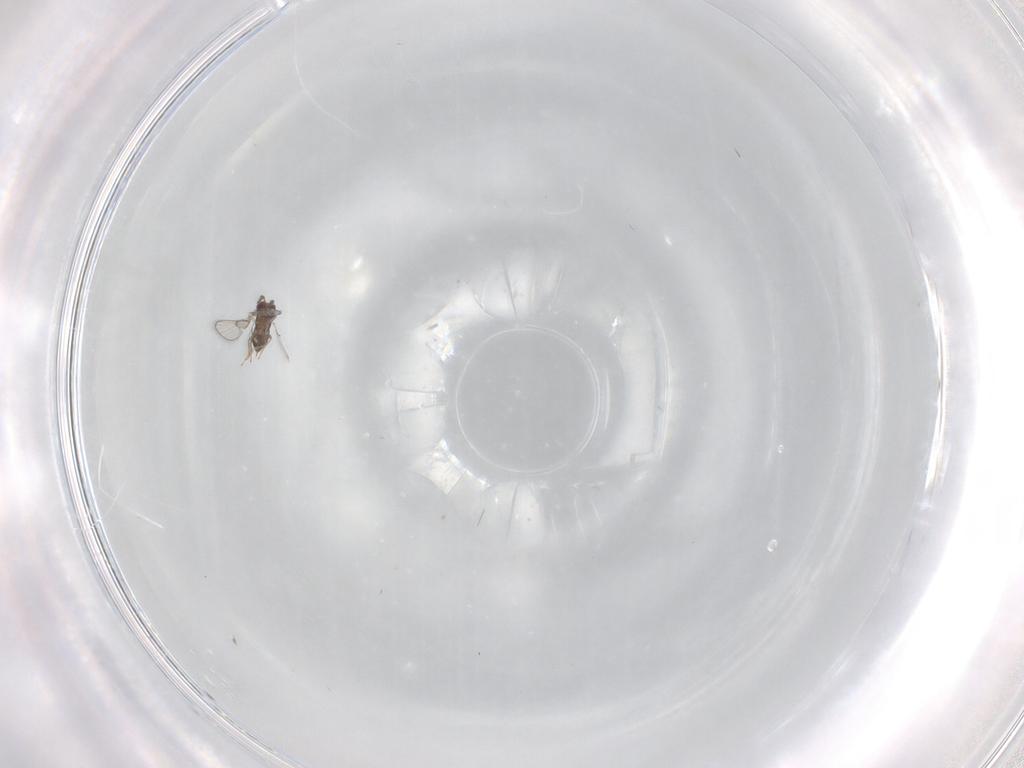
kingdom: Animalia
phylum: Arthropoda
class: Insecta
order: Hymenoptera
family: Trichogrammatidae
